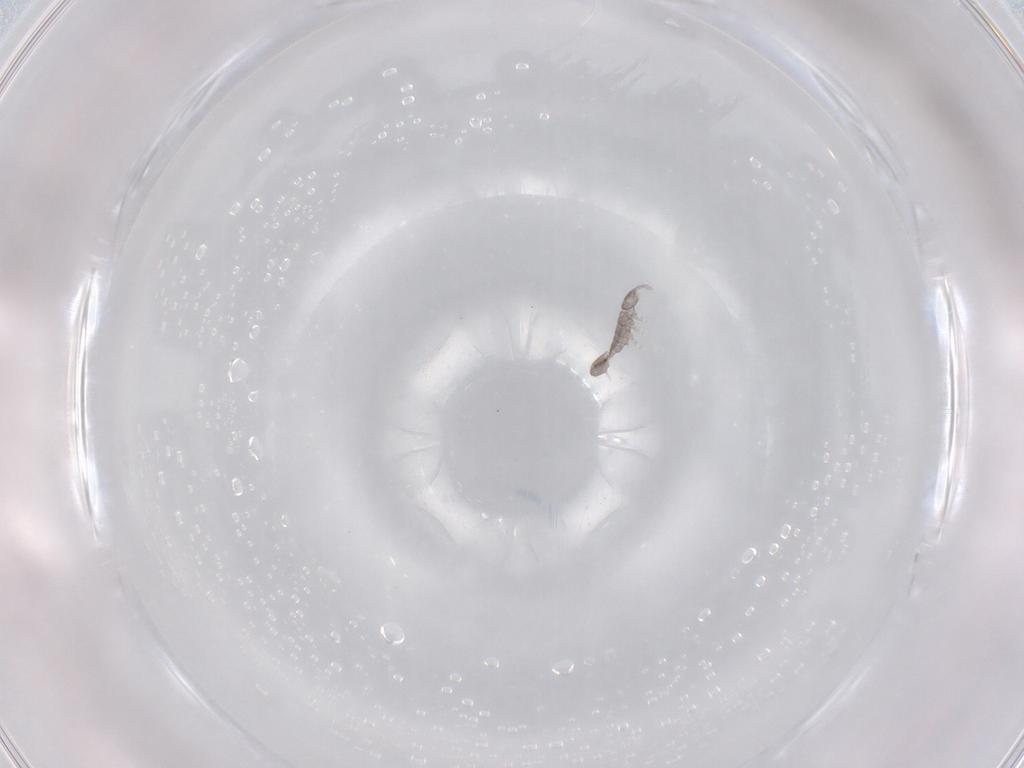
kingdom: Animalia
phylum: Arthropoda
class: Collembola
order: Entomobryomorpha
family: Isotomidae
